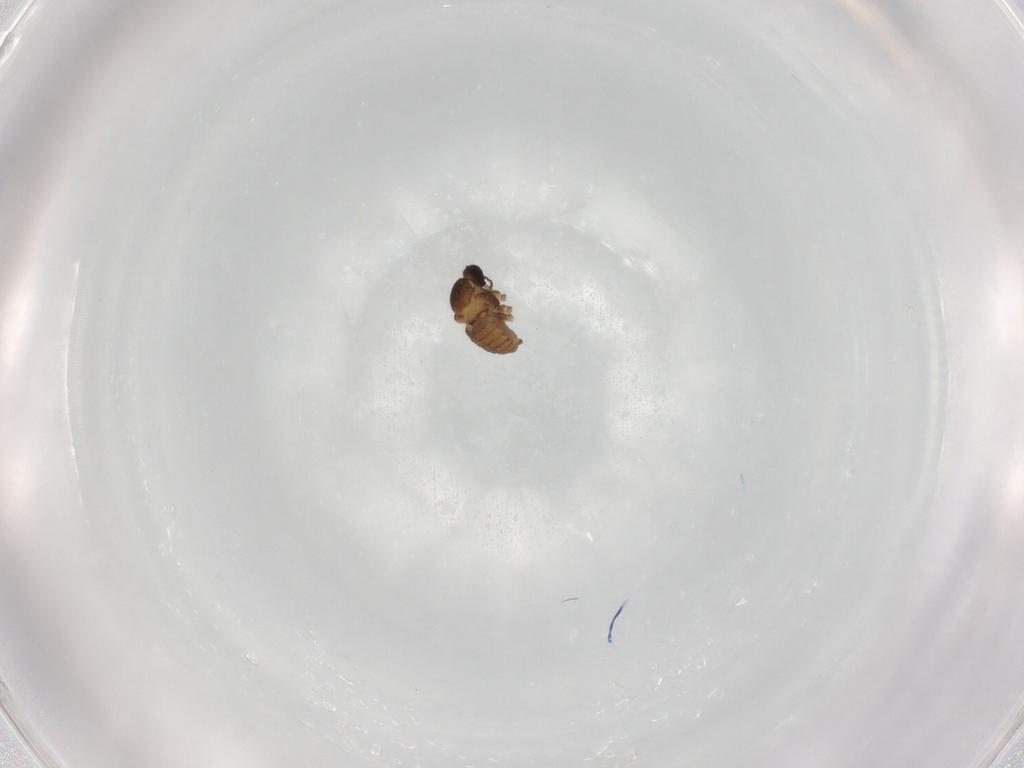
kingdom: Animalia
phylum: Arthropoda
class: Insecta
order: Diptera
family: Cecidomyiidae
